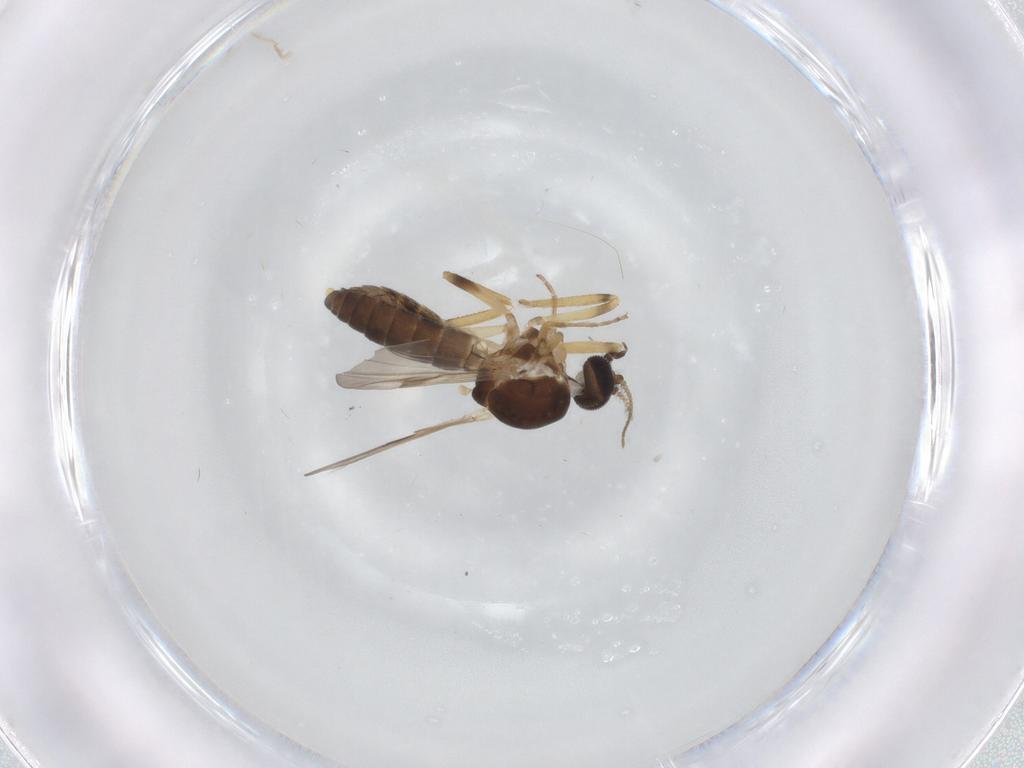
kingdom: Animalia
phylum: Arthropoda
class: Insecta
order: Diptera
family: Ceratopogonidae
